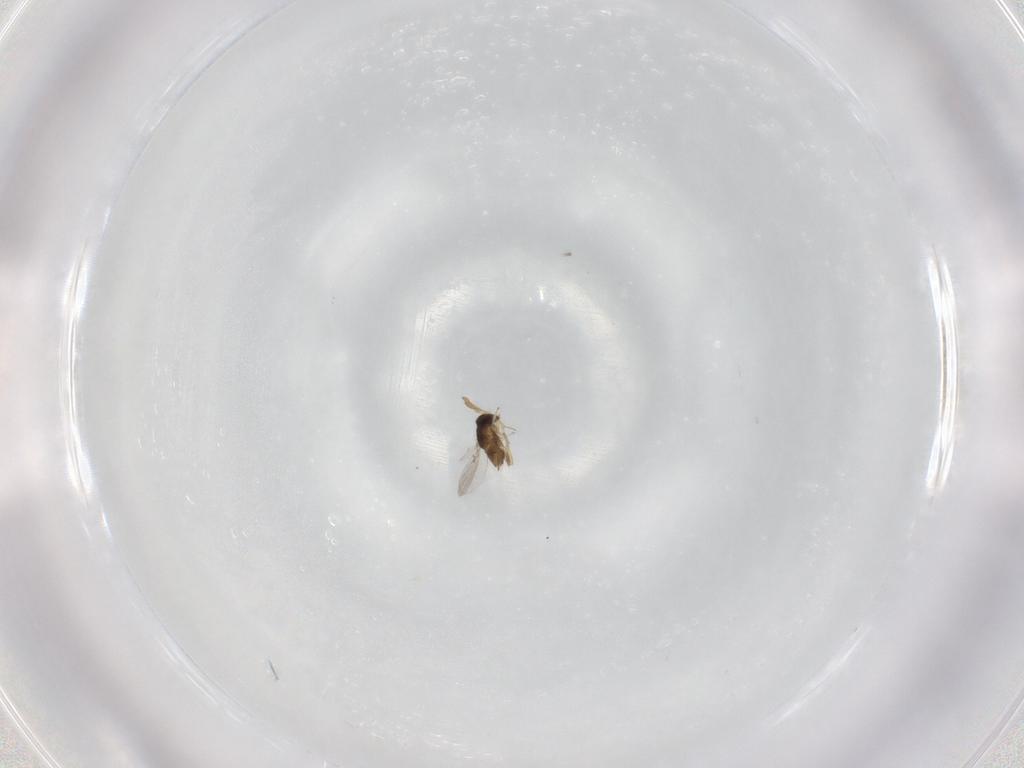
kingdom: Animalia
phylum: Arthropoda
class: Insecta
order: Hymenoptera
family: Encyrtidae
